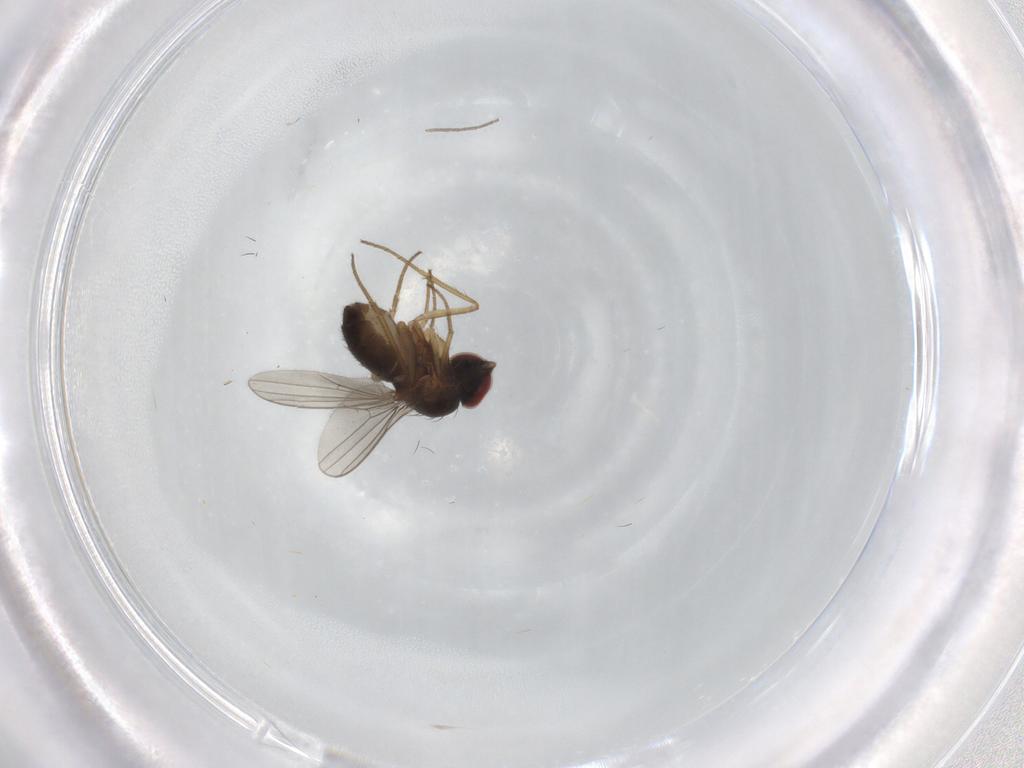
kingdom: Animalia
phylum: Arthropoda
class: Insecta
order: Diptera
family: Dolichopodidae
